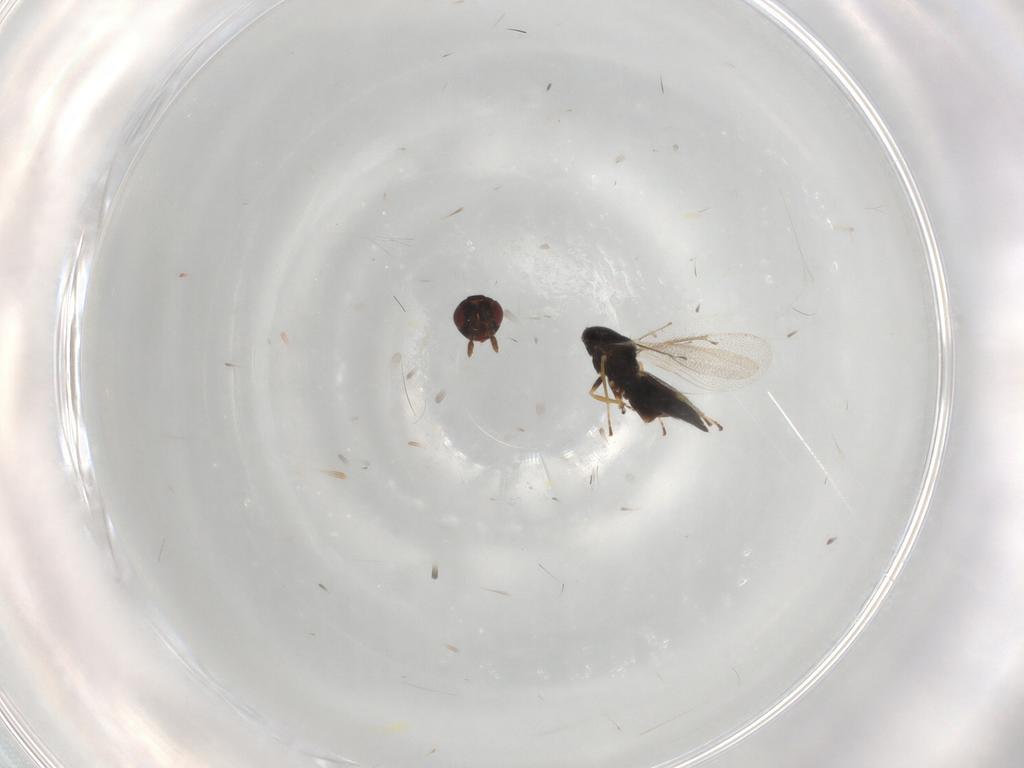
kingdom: Animalia
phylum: Arthropoda
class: Insecta
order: Hymenoptera
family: Eulophidae
